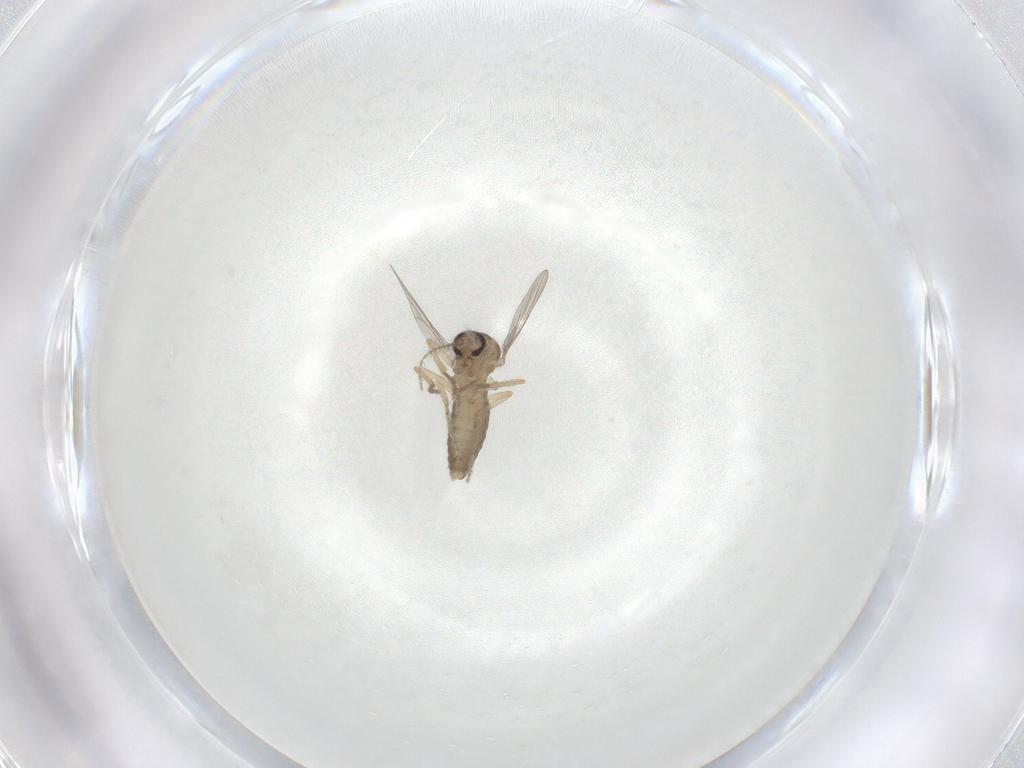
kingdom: Animalia
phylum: Arthropoda
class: Insecta
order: Diptera
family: Ceratopogonidae
